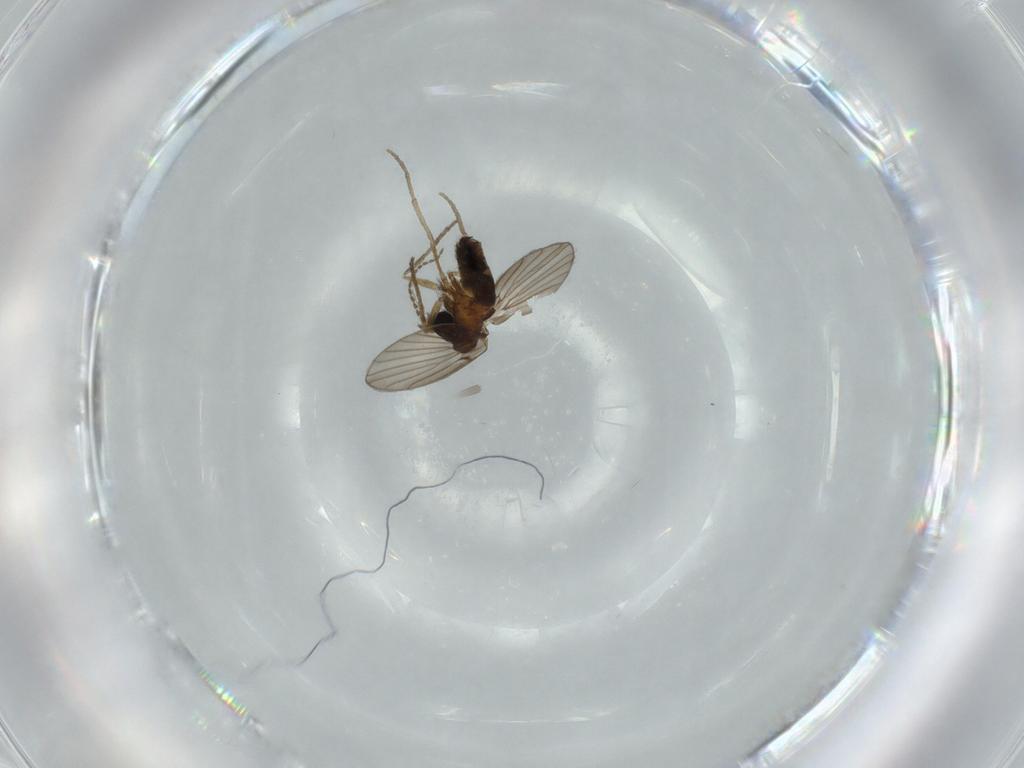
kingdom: Animalia
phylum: Arthropoda
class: Insecta
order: Diptera
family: Psychodidae
